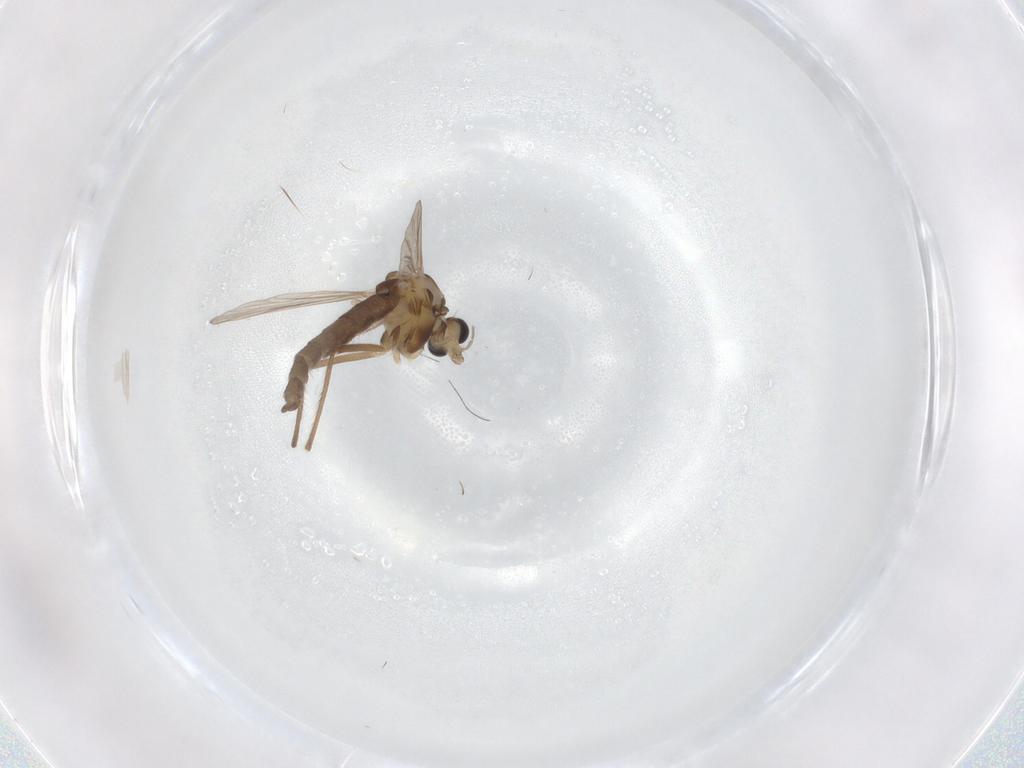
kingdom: Animalia
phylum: Arthropoda
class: Insecta
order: Diptera
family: Chironomidae
